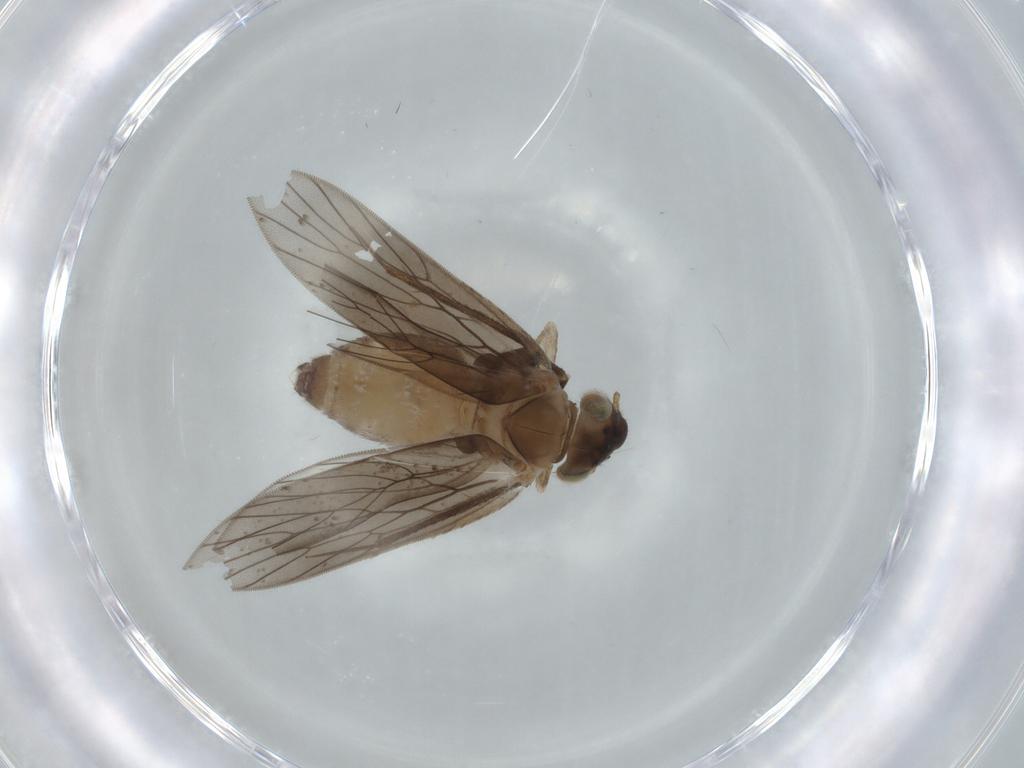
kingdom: Animalia
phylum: Arthropoda
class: Insecta
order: Psocodea
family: Lepidopsocidae
